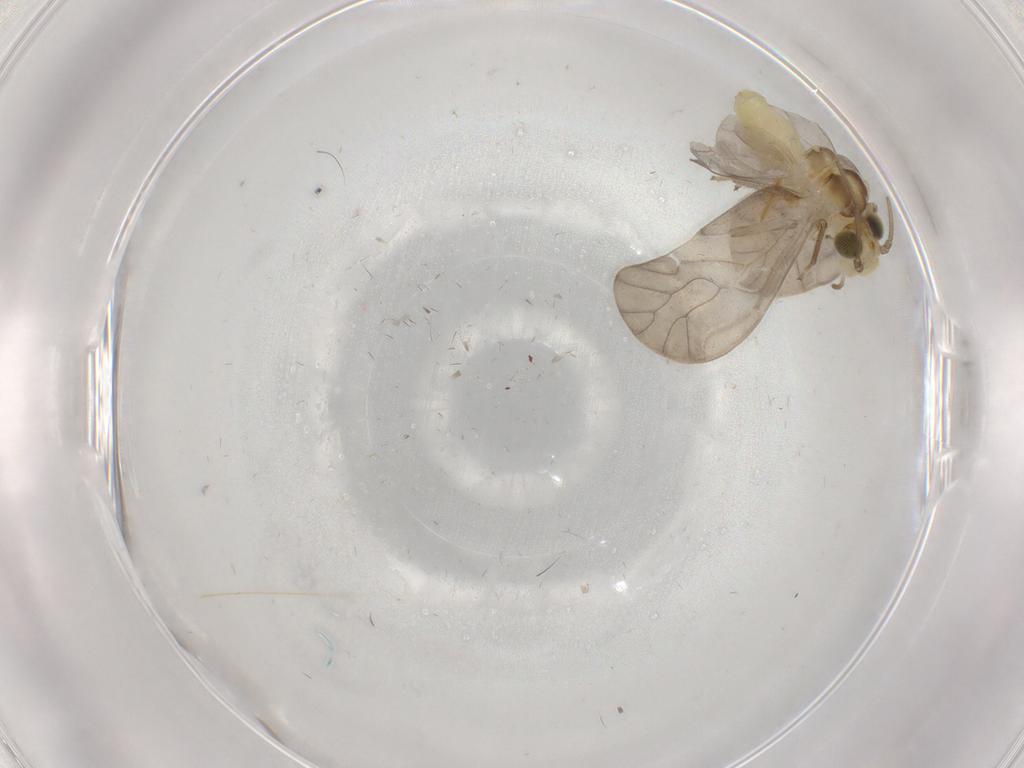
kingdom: Animalia
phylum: Arthropoda
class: Insecta
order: Psocodea
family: Caeciliusidae
